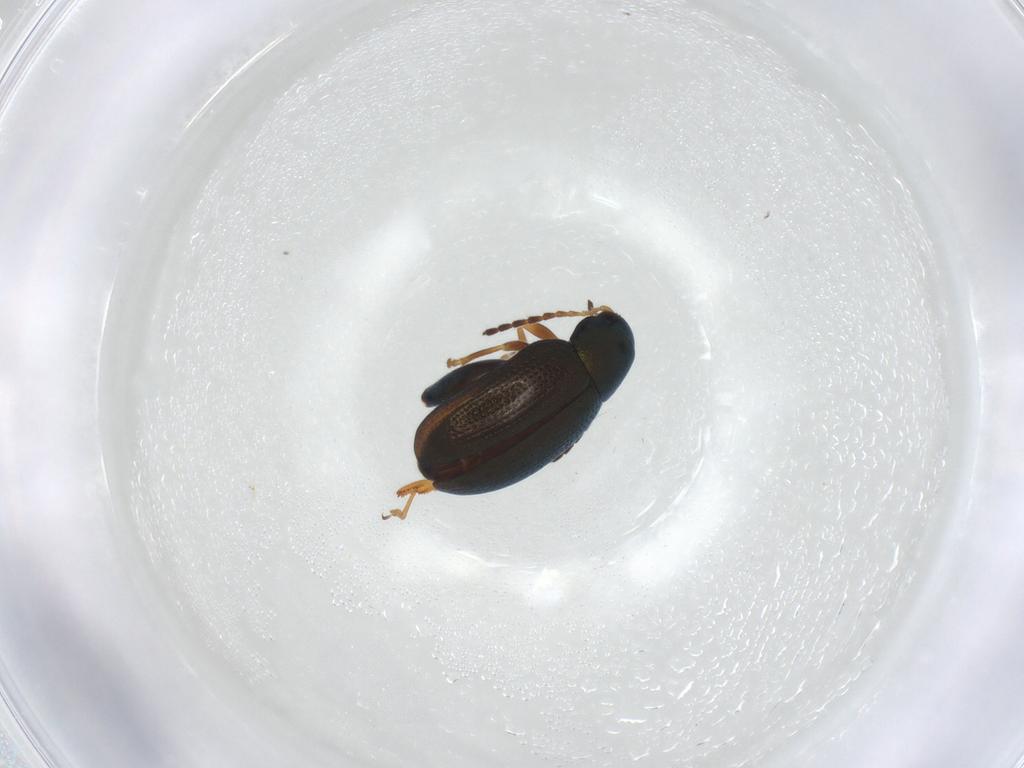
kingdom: Animalia
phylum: Arthropoda
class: Insecta
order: Coleoptera
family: Chrysomelidae
